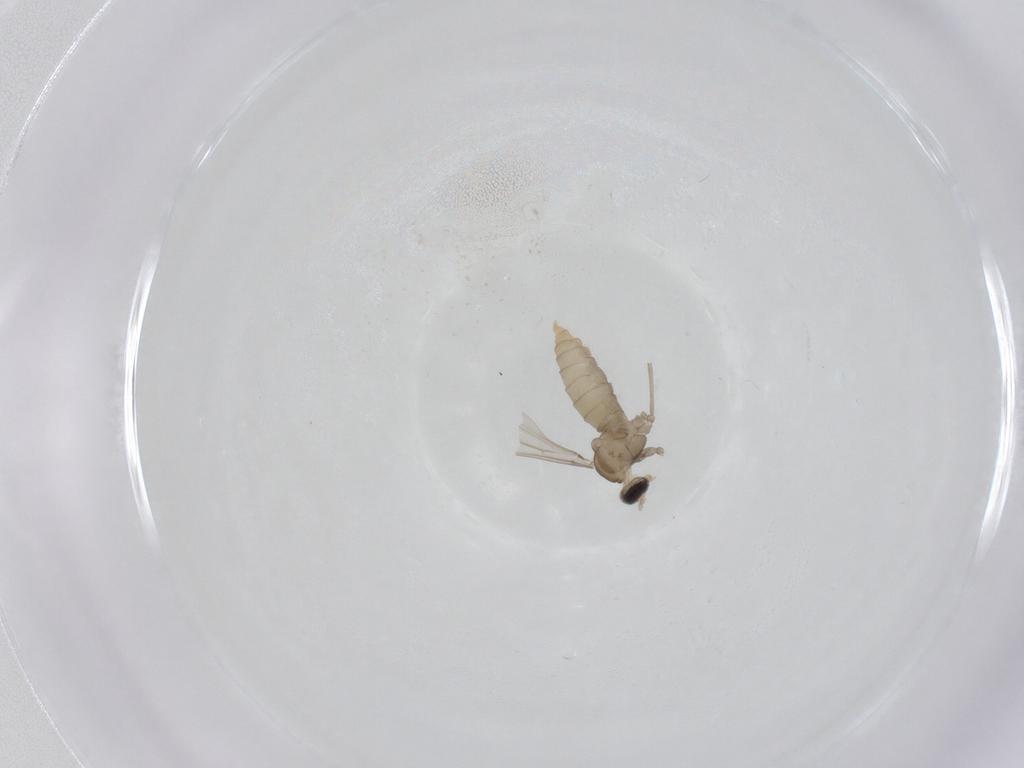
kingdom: Animalia
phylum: Arthropoda
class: Insecta
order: Diptera
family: Cecidomyiidae
